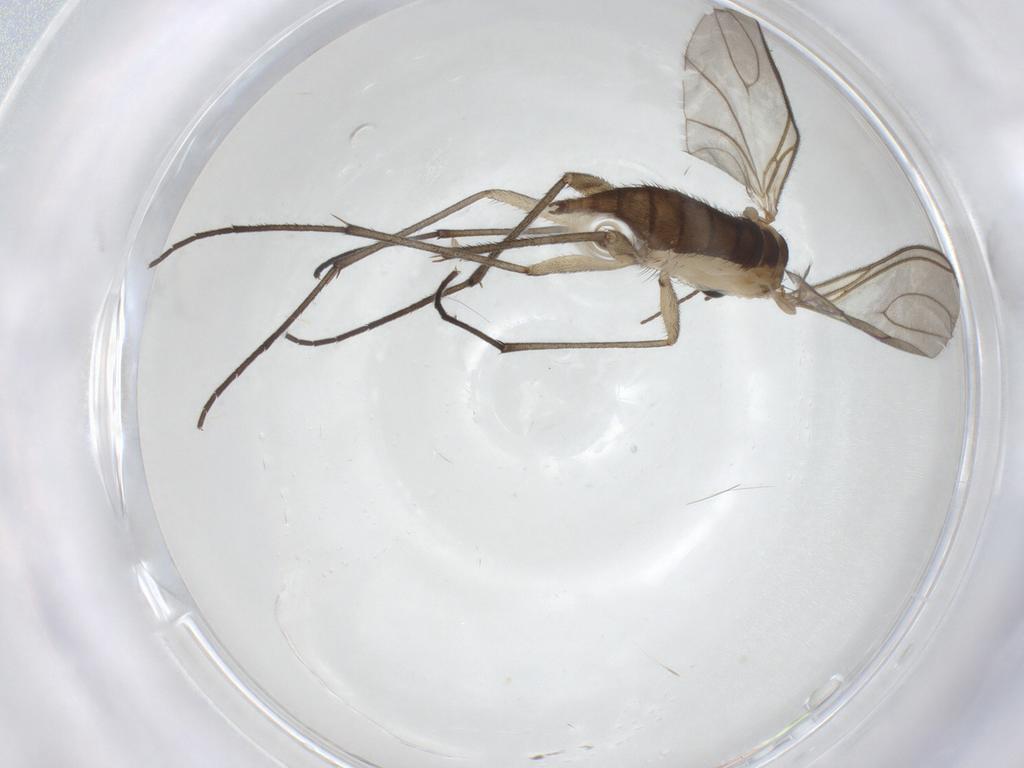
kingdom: Animalia
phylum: Arthropoda
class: Insecta
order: Diptera
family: Sciaridae
